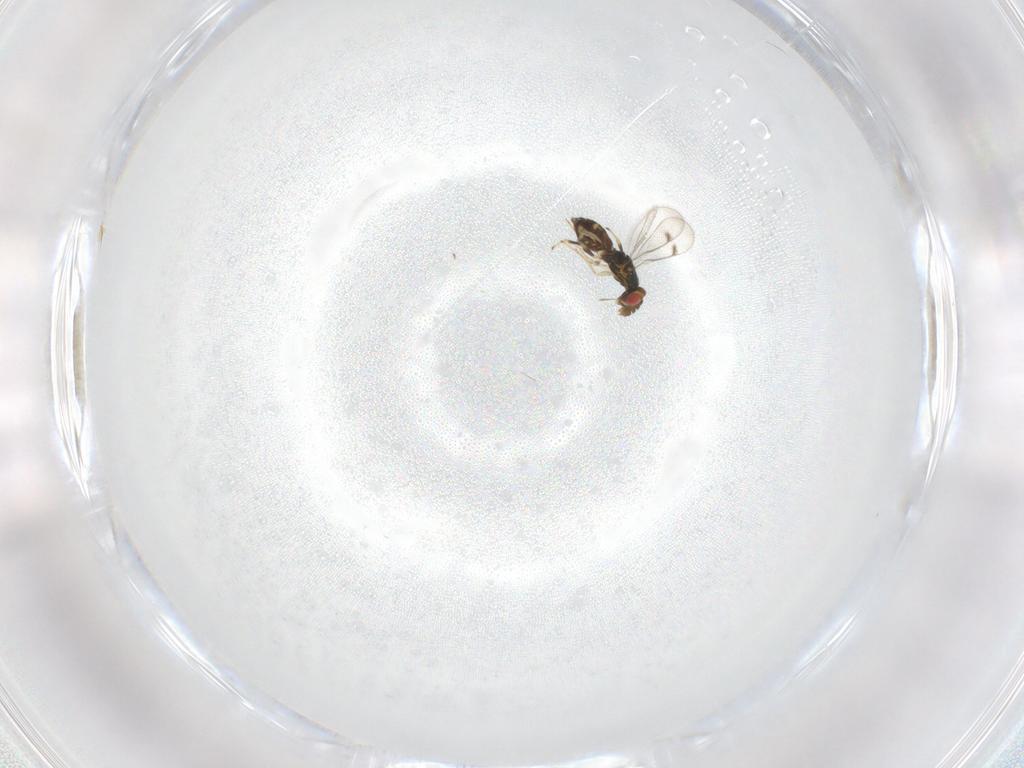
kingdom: Animalia
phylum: Arthropoda
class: Insecta
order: Hymenoptera
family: Eulophidae
